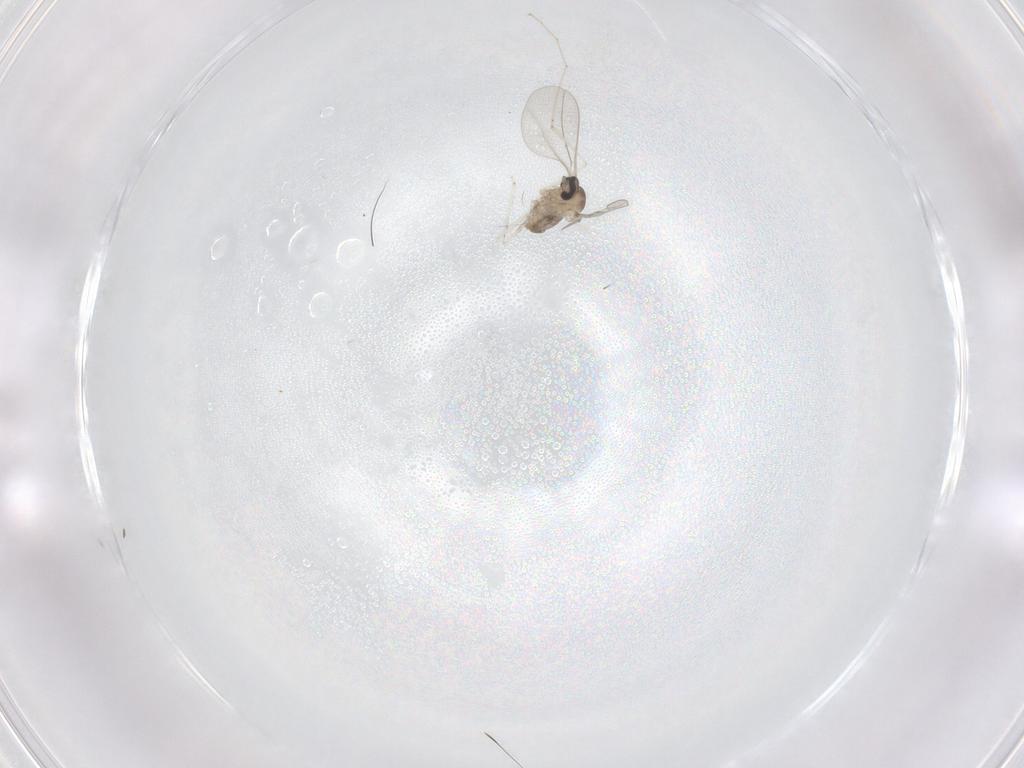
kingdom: Animalia
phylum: Arthropoda
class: Insecta
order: Diptera
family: Cecidomyiidae
